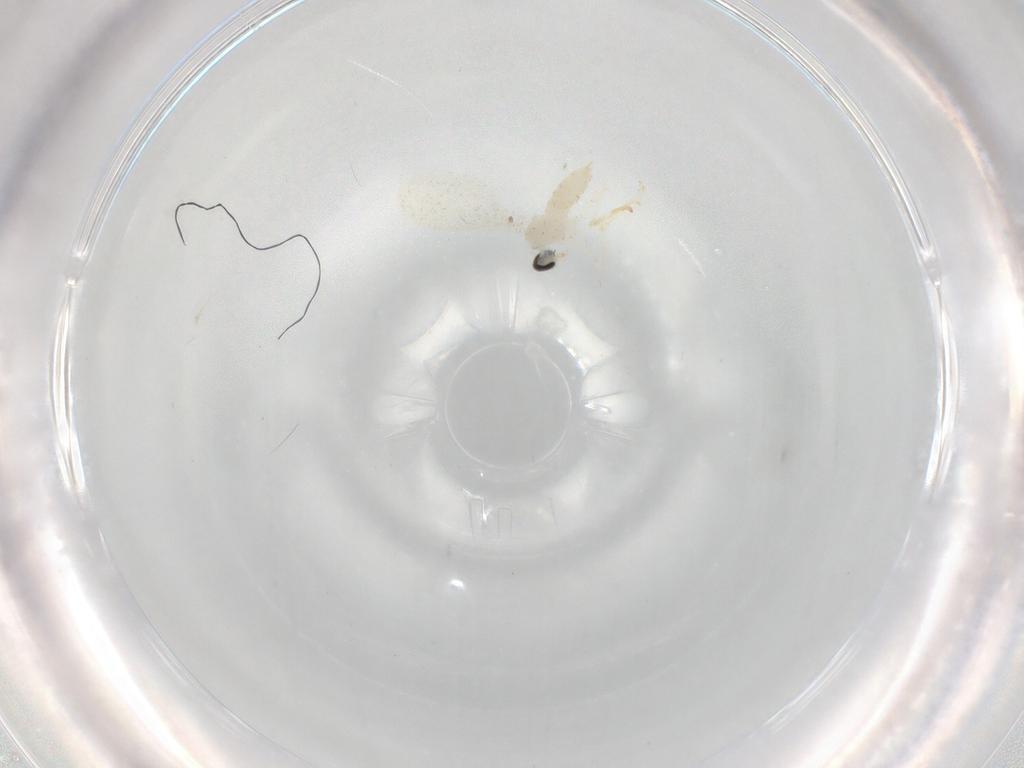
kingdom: Animalia
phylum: Arthropoda
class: Insecta
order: Diptera
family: Cecidomyiidae
